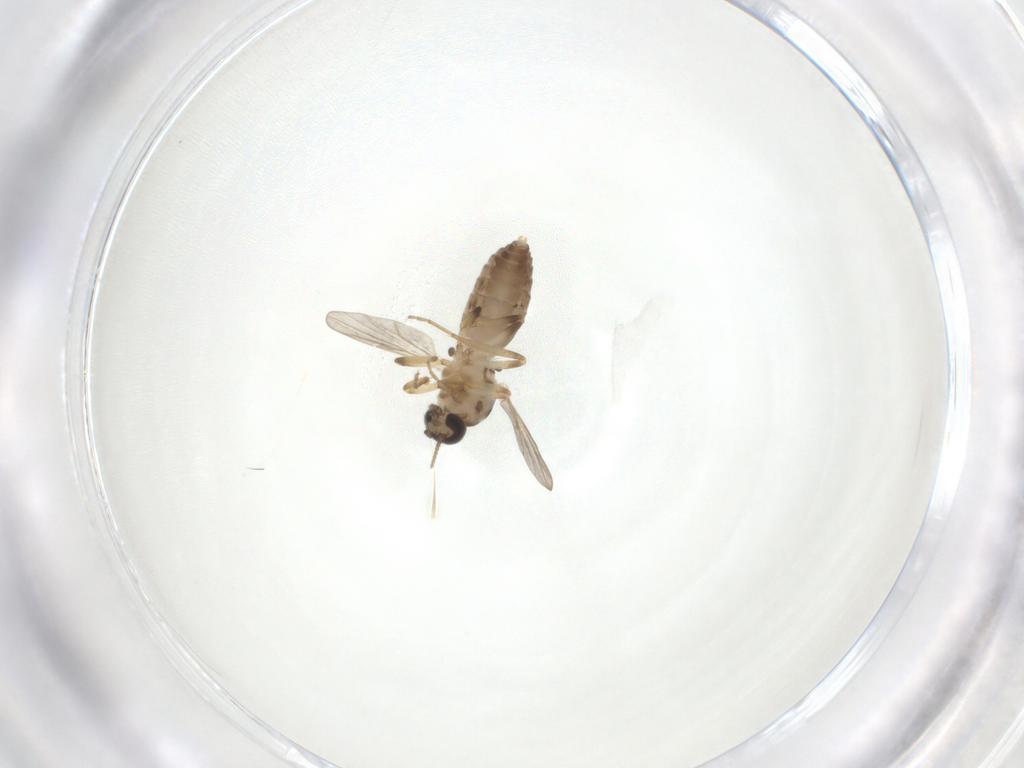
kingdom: Animalia
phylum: Arthropoda
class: Insecta
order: Diptera
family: Ceratopogonidae
